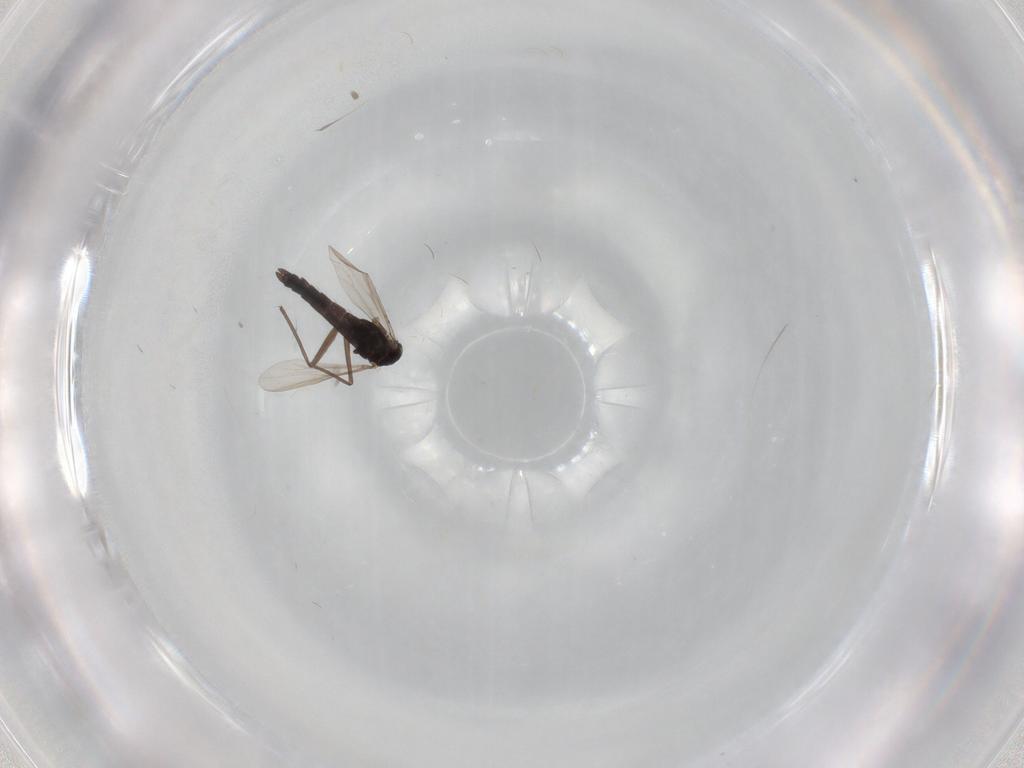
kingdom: Animalia
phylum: Arthropoda
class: Insecta
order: Diptera
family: Chironomidae
